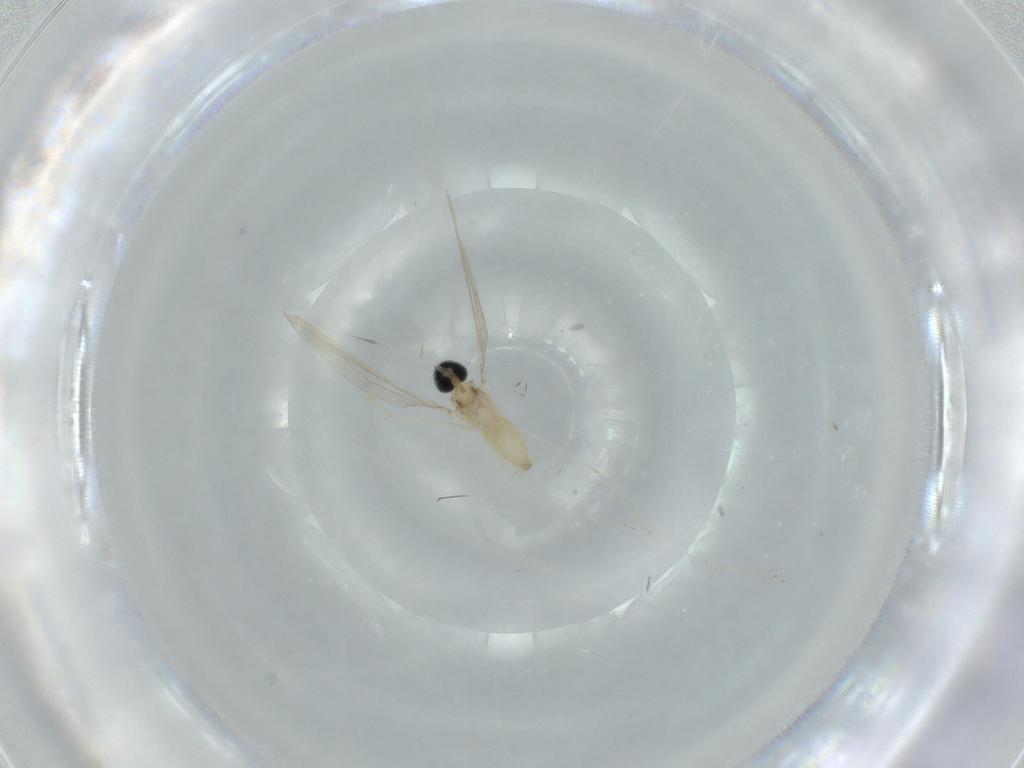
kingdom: Animalia
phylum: Arthropoda
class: Insecta
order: Diptera
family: Cecidomyiidae
